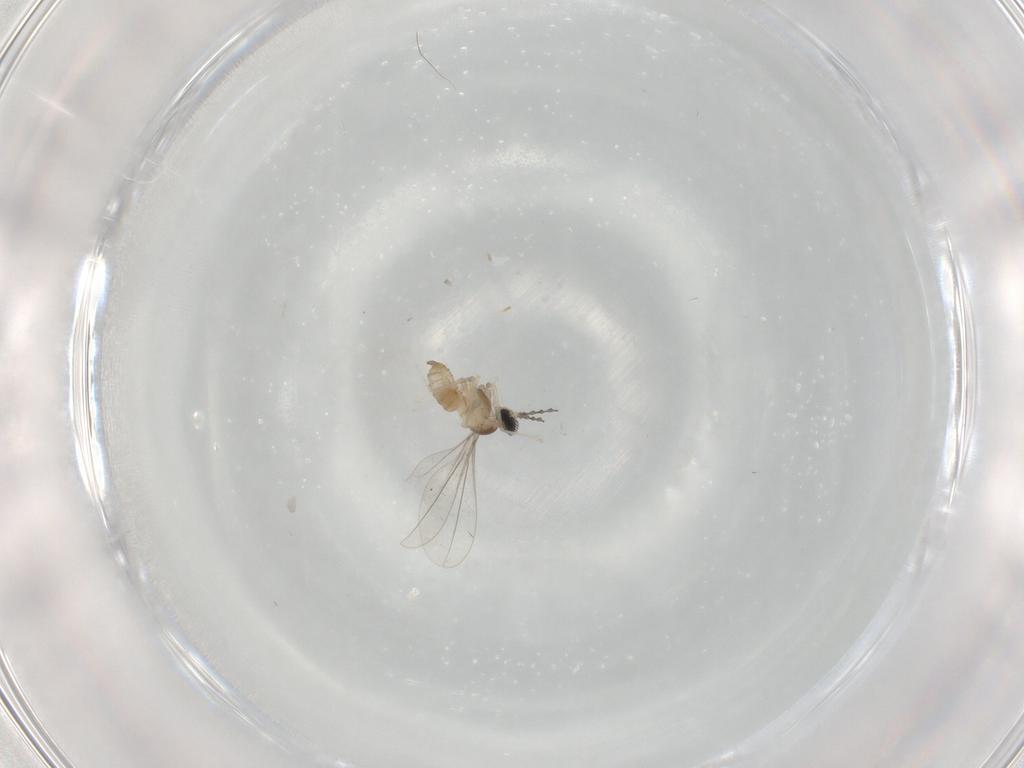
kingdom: Animalia
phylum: Arthropoda
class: Insecta
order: Diptera
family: Cecidomyiidae
